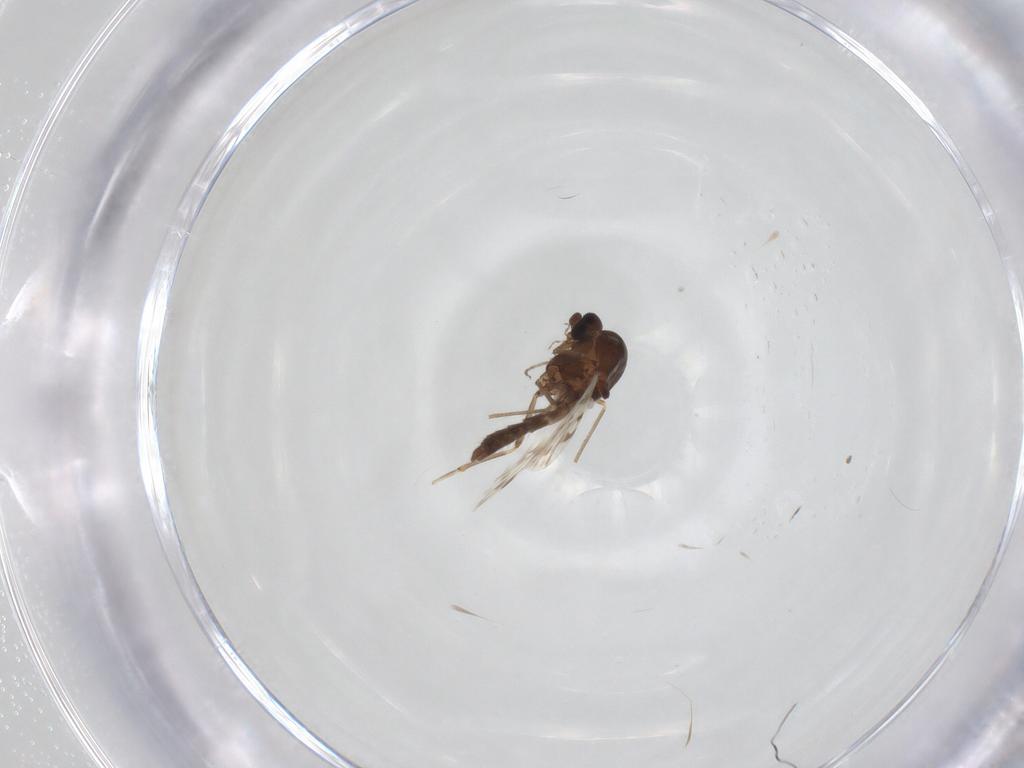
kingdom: Animalia
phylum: Arthropoda
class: Insecta
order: Diptera
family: Ceratopogonidae
